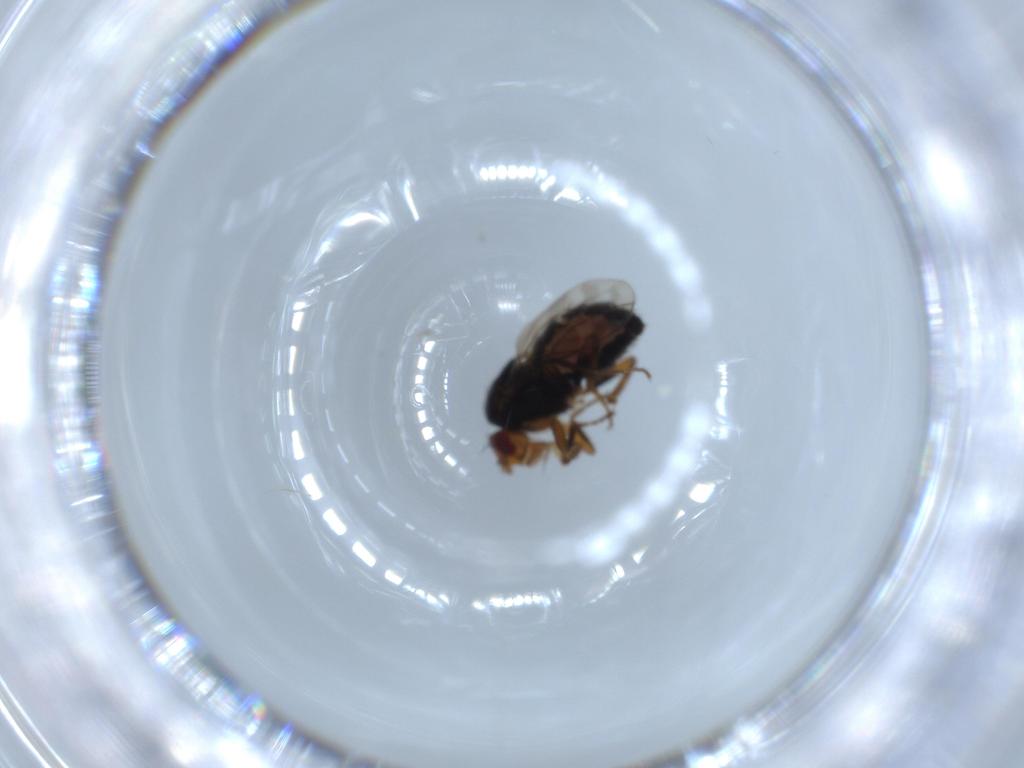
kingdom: Animalia
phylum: Arthropoda
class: Insecta
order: Diptera
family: Sphaeroceridae
